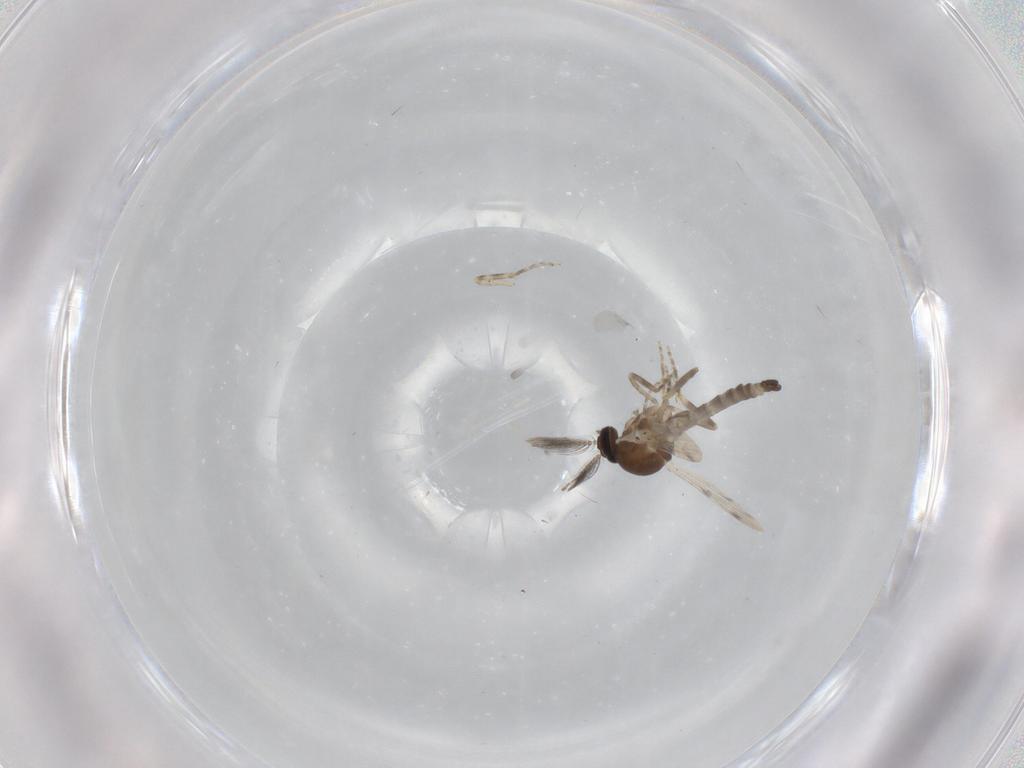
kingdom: Animalia
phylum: Arthropoda
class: Insecta
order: Diptera
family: Ceratopogonidae
